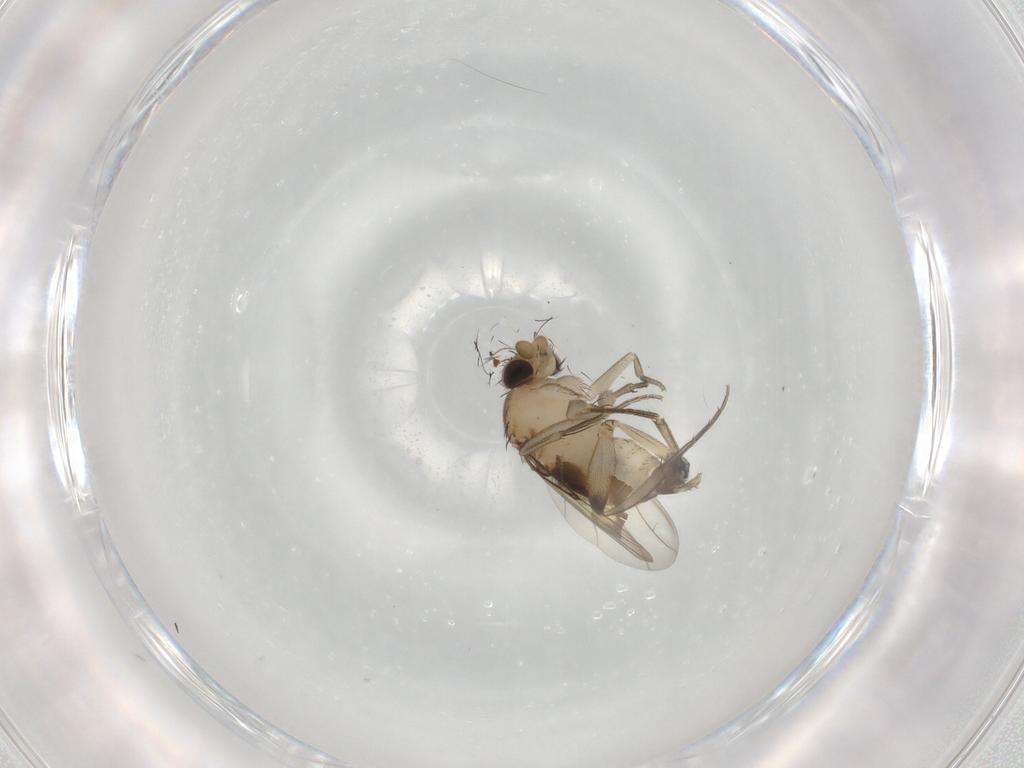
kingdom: Animalia
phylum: Arthropoda
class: Insecta
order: Diptera
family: Phoridae
